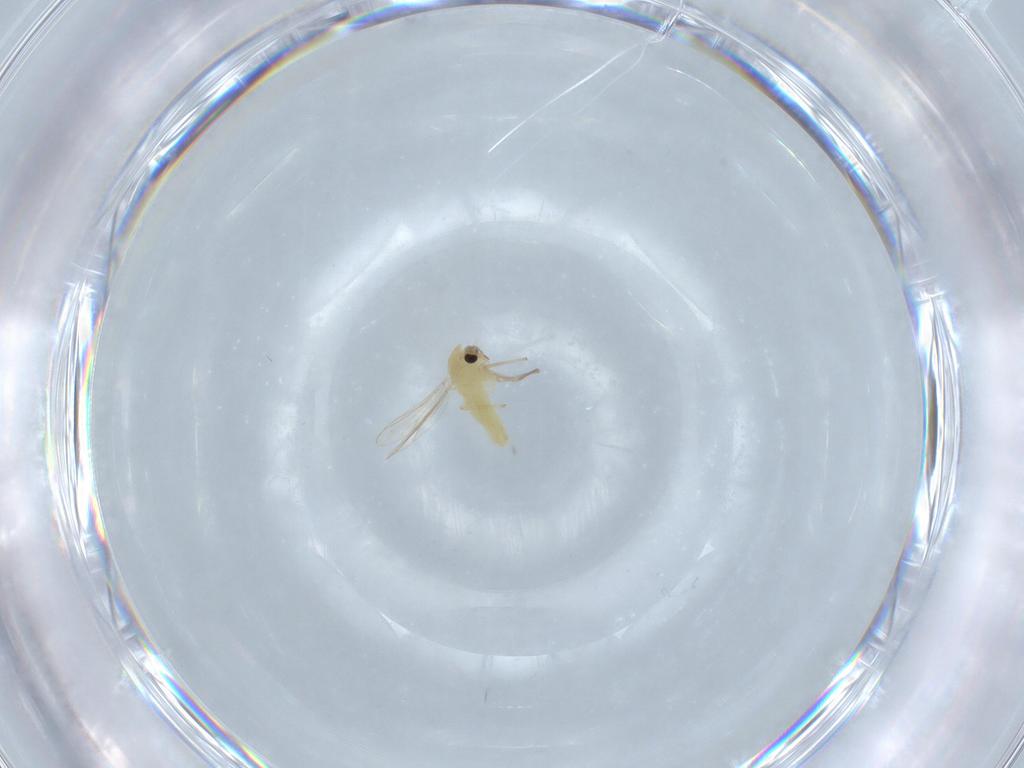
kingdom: Animalia
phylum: Arthropoda
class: Insecta
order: Diptera
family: Chironomidae
